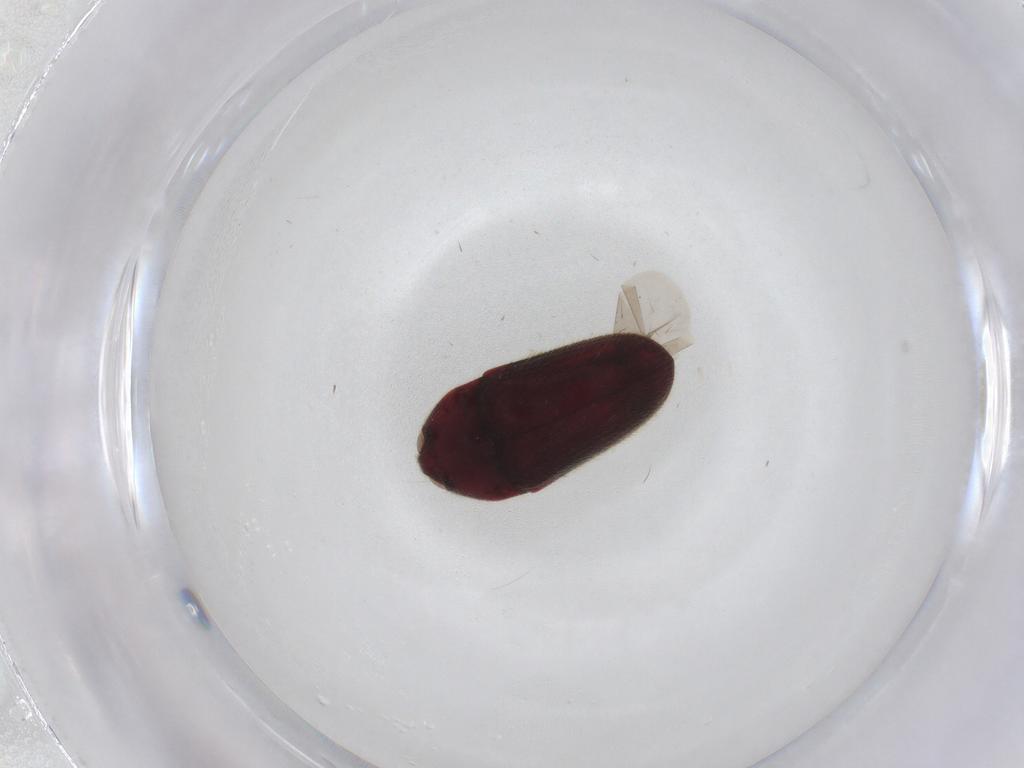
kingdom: Animalia
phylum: Arthropoda
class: Insecta
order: Coleoptera
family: Throscidae
